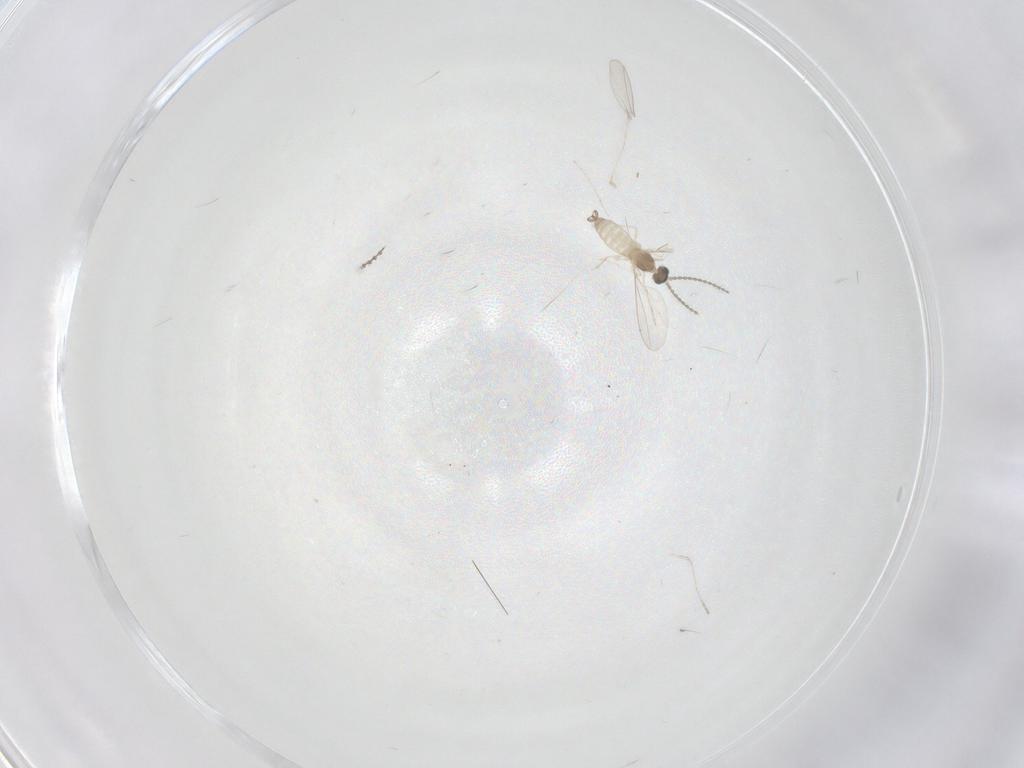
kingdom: Animalia
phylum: Arthropoda
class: Insecta
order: Diptera
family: Cecidomyiidae
